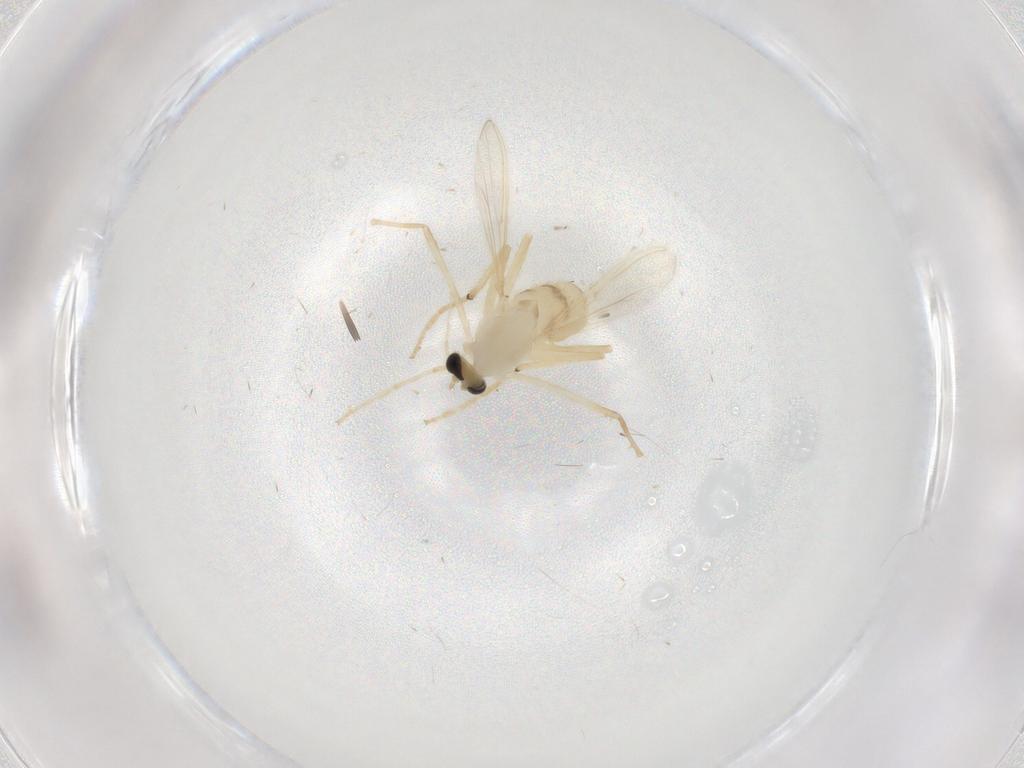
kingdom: Animalia
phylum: Arthropoda
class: Insecta
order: Diptera
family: Chironomidae
